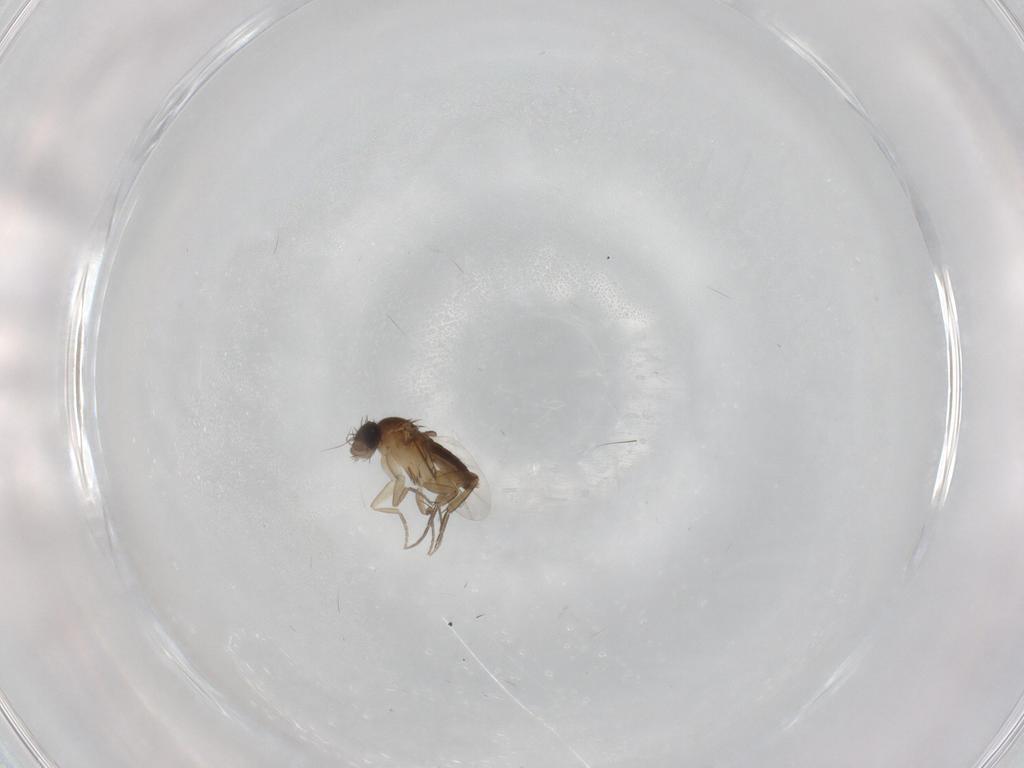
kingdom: Animalia
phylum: Arthropoda
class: Insecta
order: Diptera
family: Phoridae
